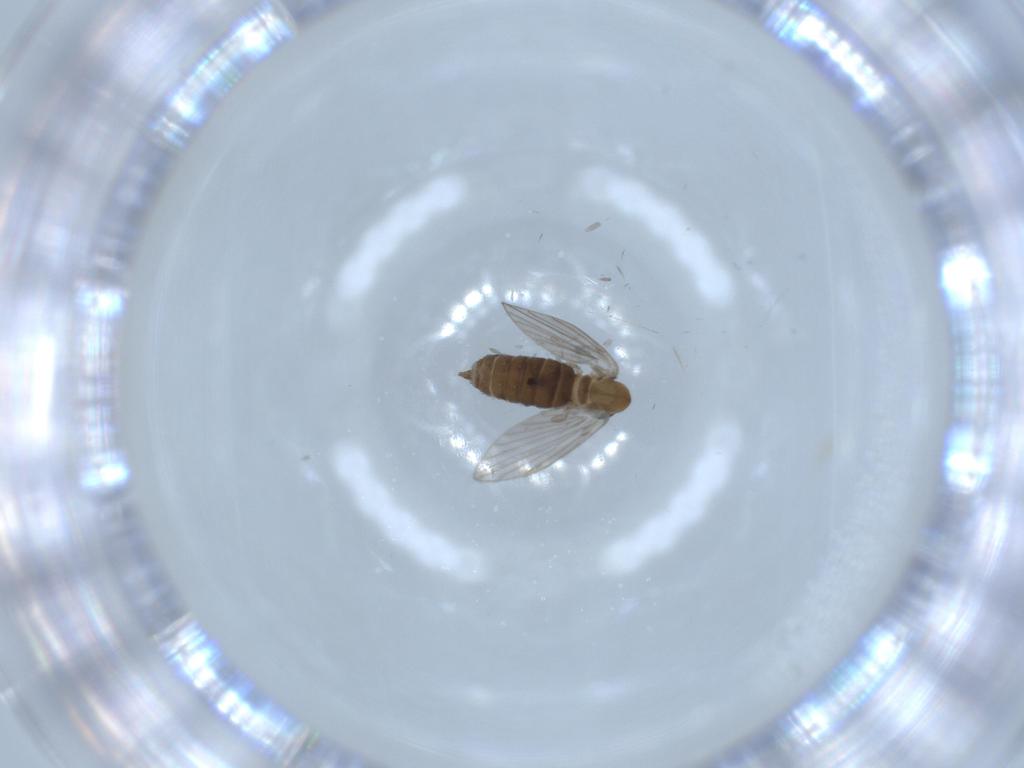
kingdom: Animalia
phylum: Arthropoda
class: Insecta
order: Diptera
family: Psychodidae
